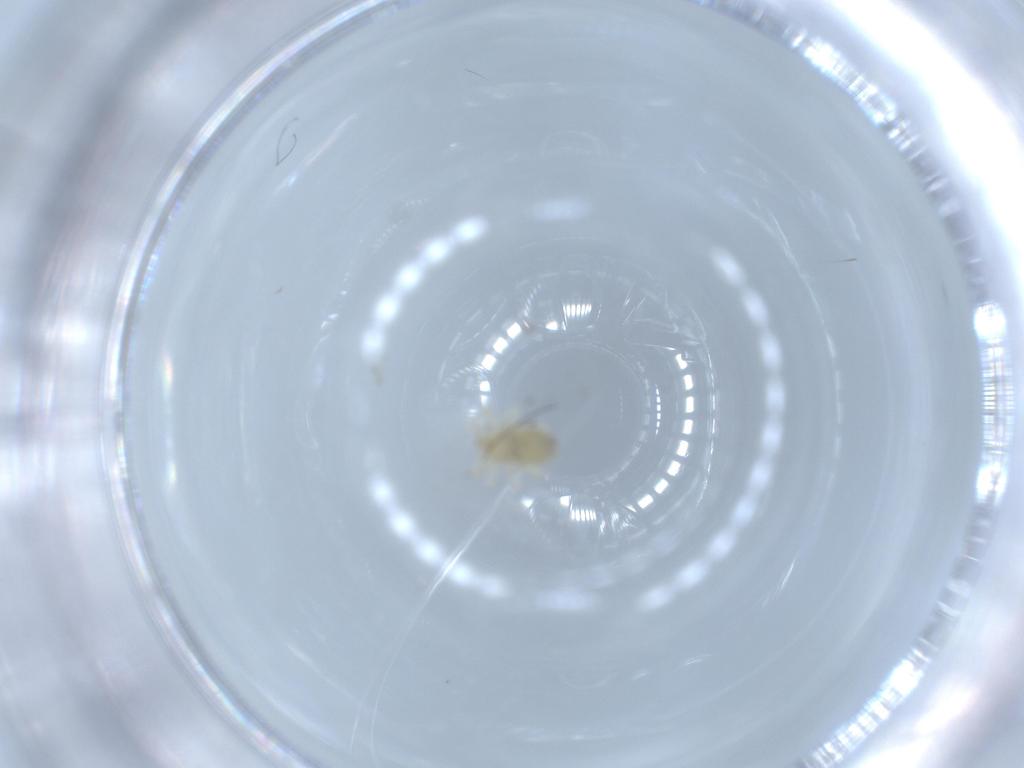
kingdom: Animalia
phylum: Arthropoda
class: Arachnida
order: Trombidiformes
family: Anystidae
